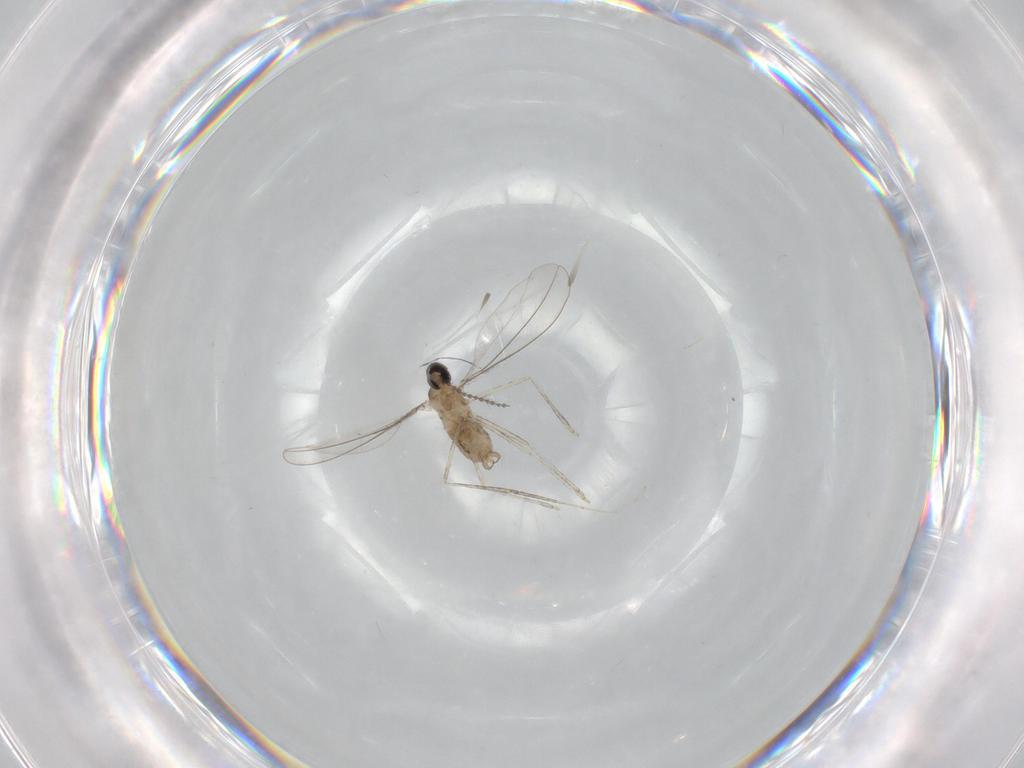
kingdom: Animalia
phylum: Arthropoda
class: Insecta
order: Diptera
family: Cecidomyiidae
